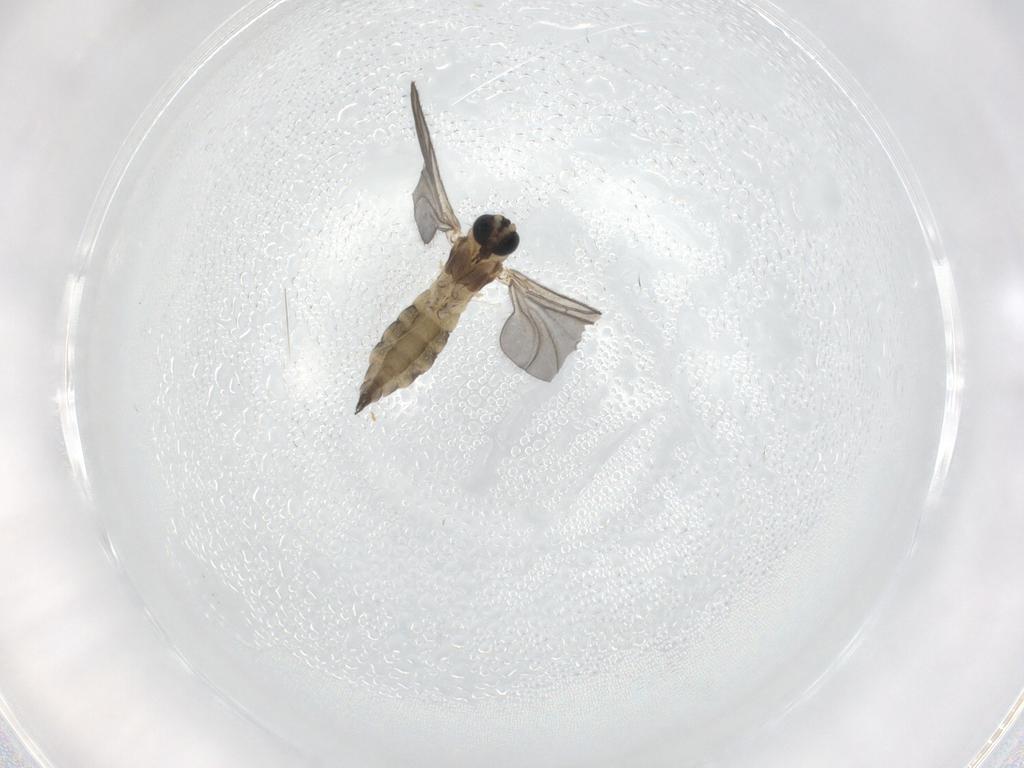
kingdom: Animalia
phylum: Arthropoda
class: Insecta
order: Diptera
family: Sciaridae
